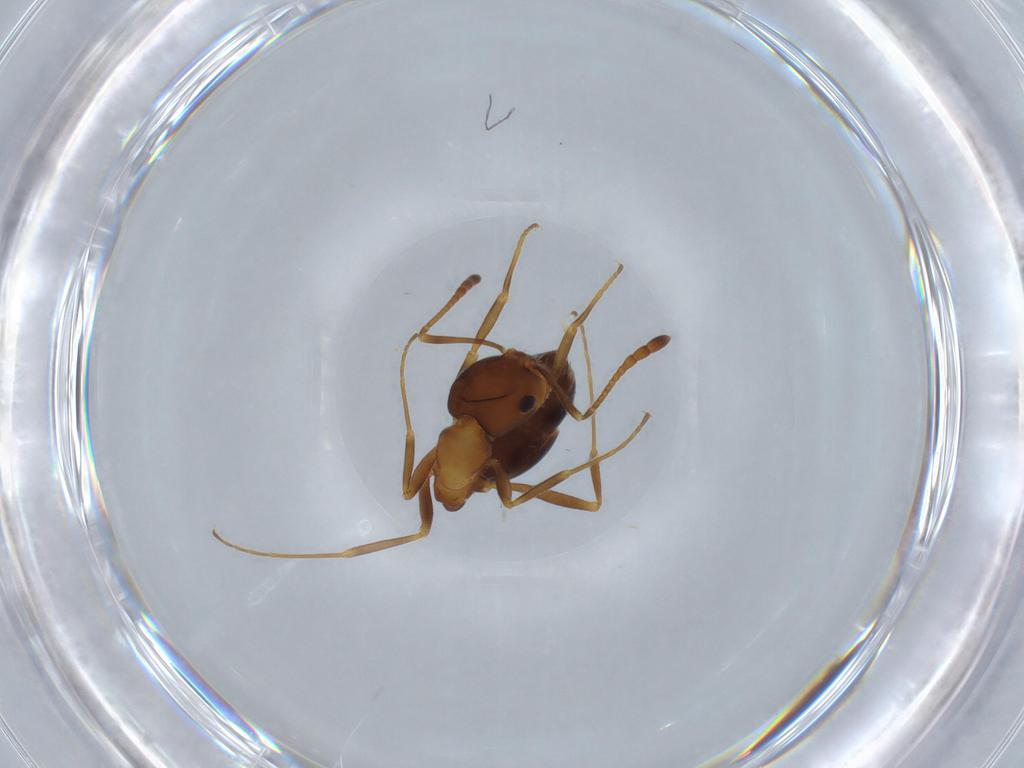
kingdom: Animalia
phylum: Arthropoda
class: Insecta
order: Hymenoptera
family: Formicidae
